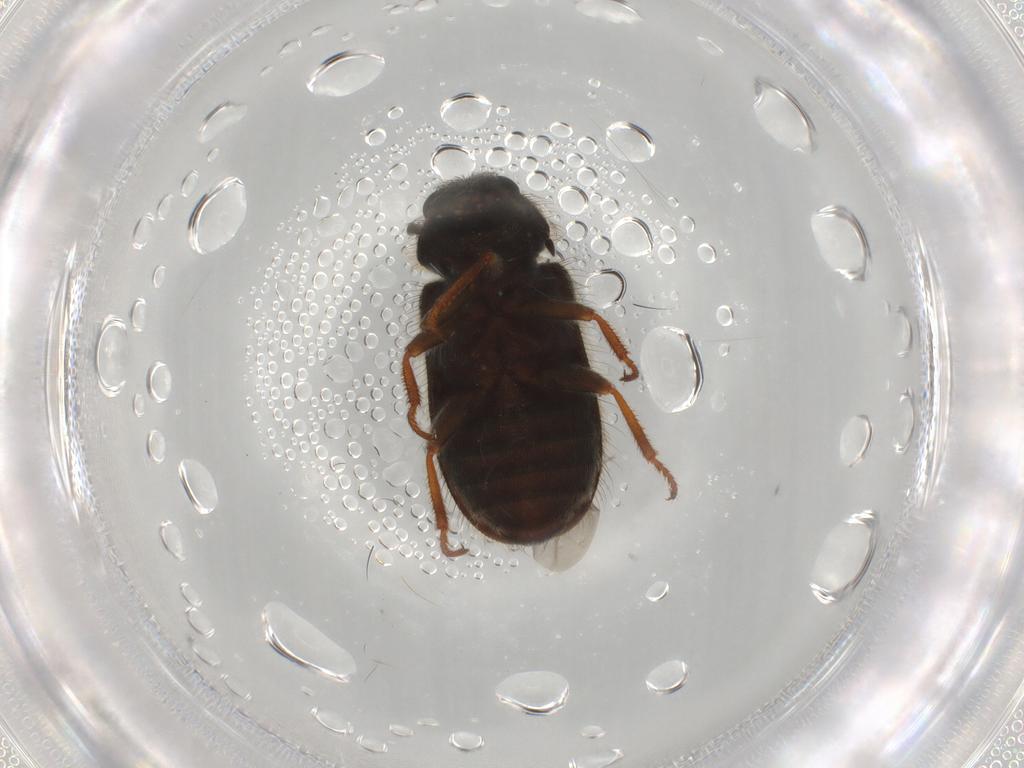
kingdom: Animalia
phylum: Arthropoda
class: Insecta
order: Coleoptera
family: Melyridae
